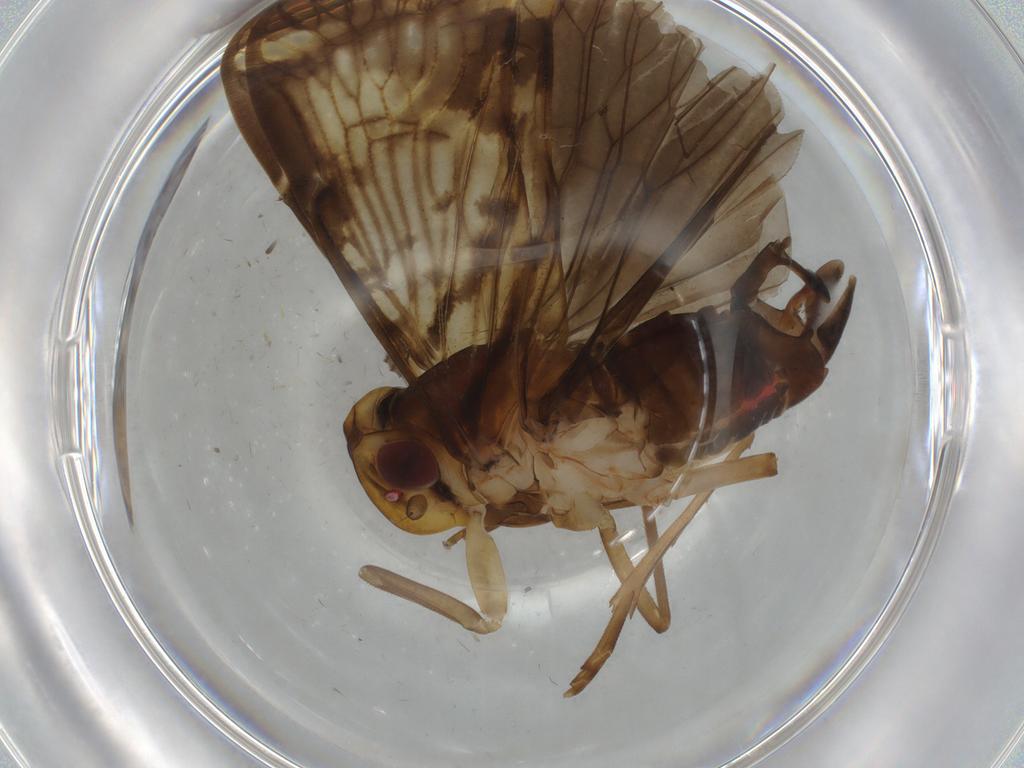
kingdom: Animalia
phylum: Arthropoda
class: Insecta
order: Hemiptera
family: Cixiidae
